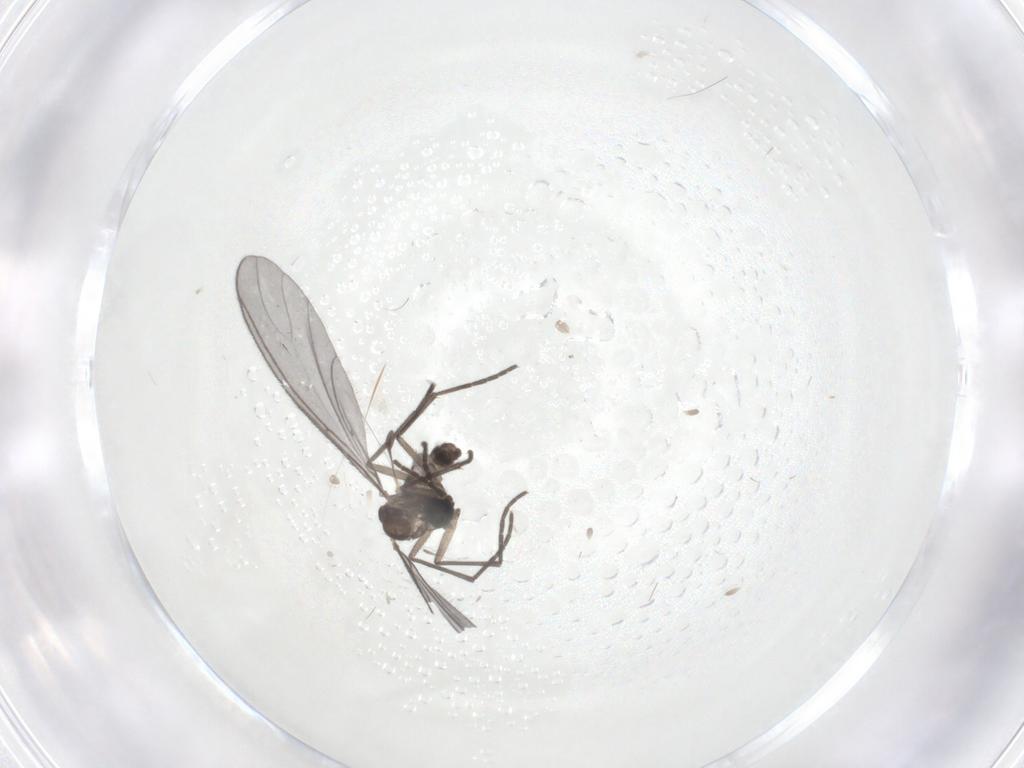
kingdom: Animalia
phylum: Arthropoda
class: Insecta
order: Diptera
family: Sciaridae
